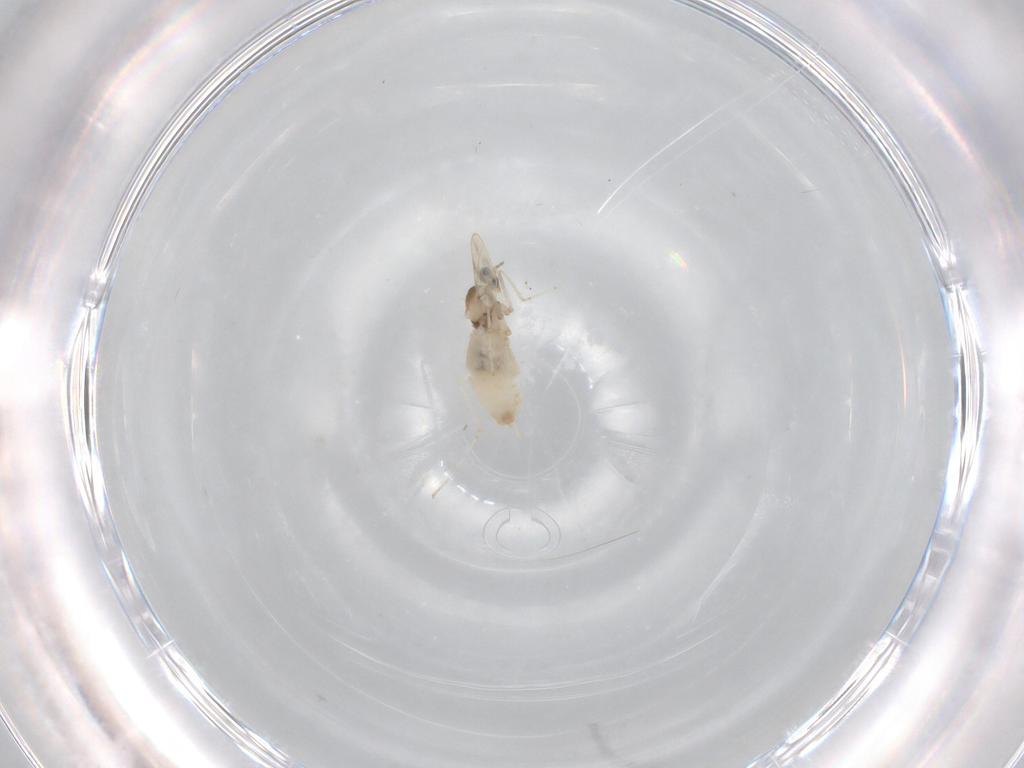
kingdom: Animalia
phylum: Arthropoda
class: Insecta
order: Diptera
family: Cecidomyiidae
